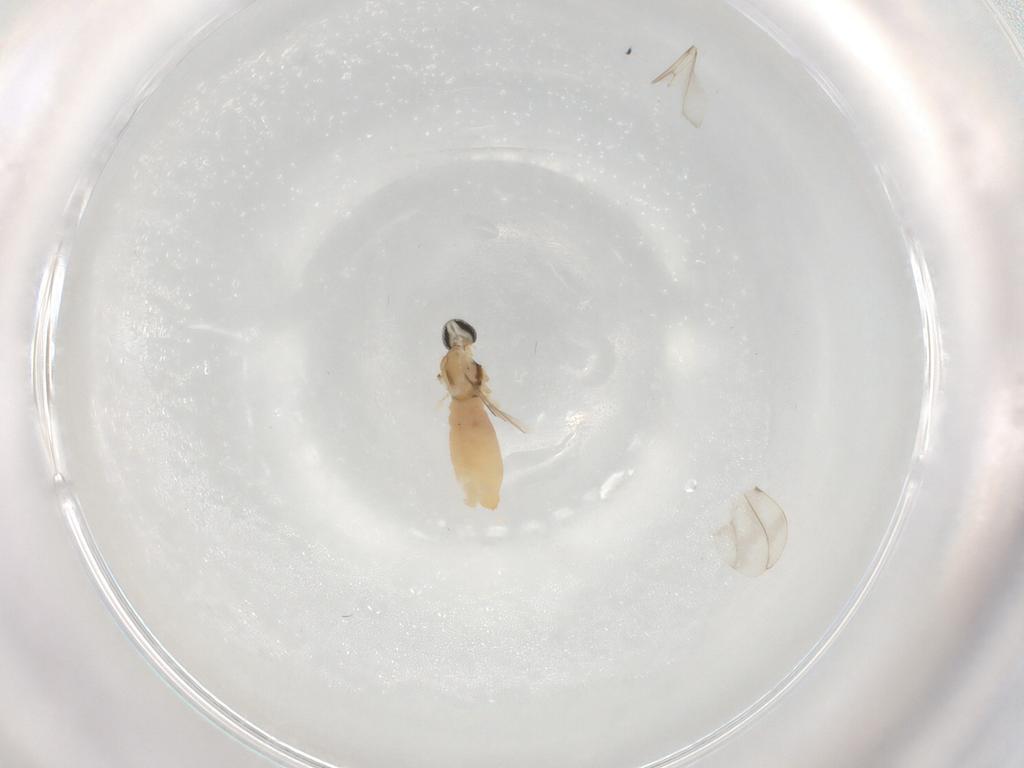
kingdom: Animalia
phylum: Arthropoda
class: Insecta
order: Diptera
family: Cecidomyiidae
